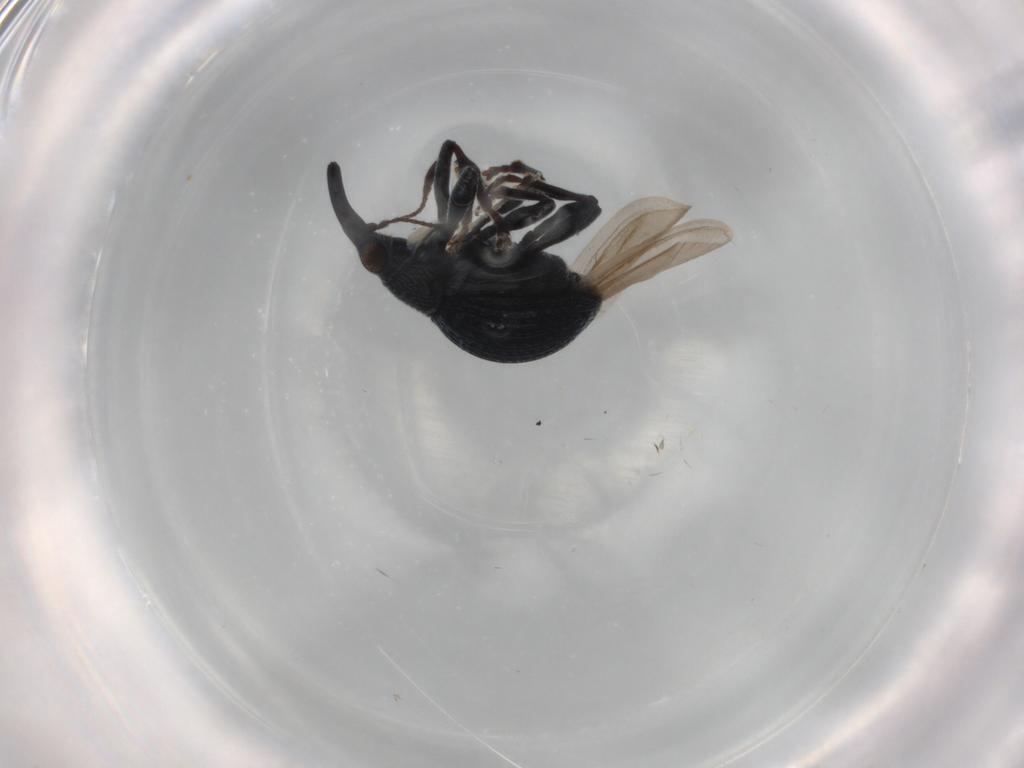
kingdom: Animalia
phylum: Arthropoda
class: Insecta
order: Coleoptera
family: Brentidae
